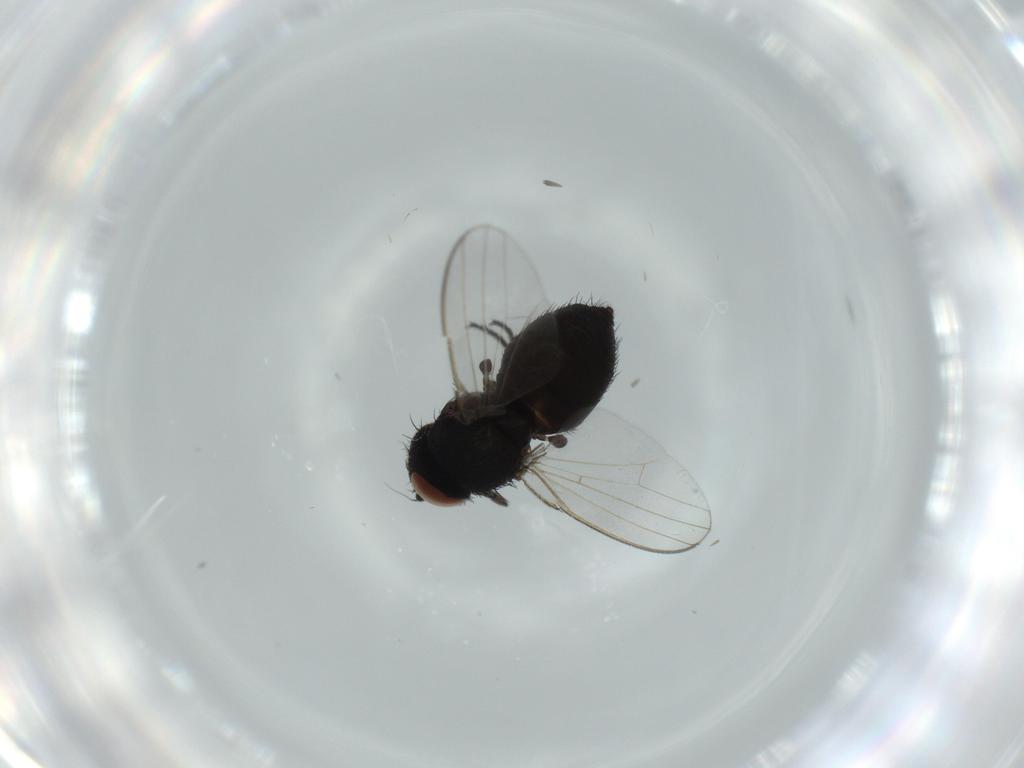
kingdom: Animalia
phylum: Arthropoda
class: Insecta
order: Diptera
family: Milichiidae
